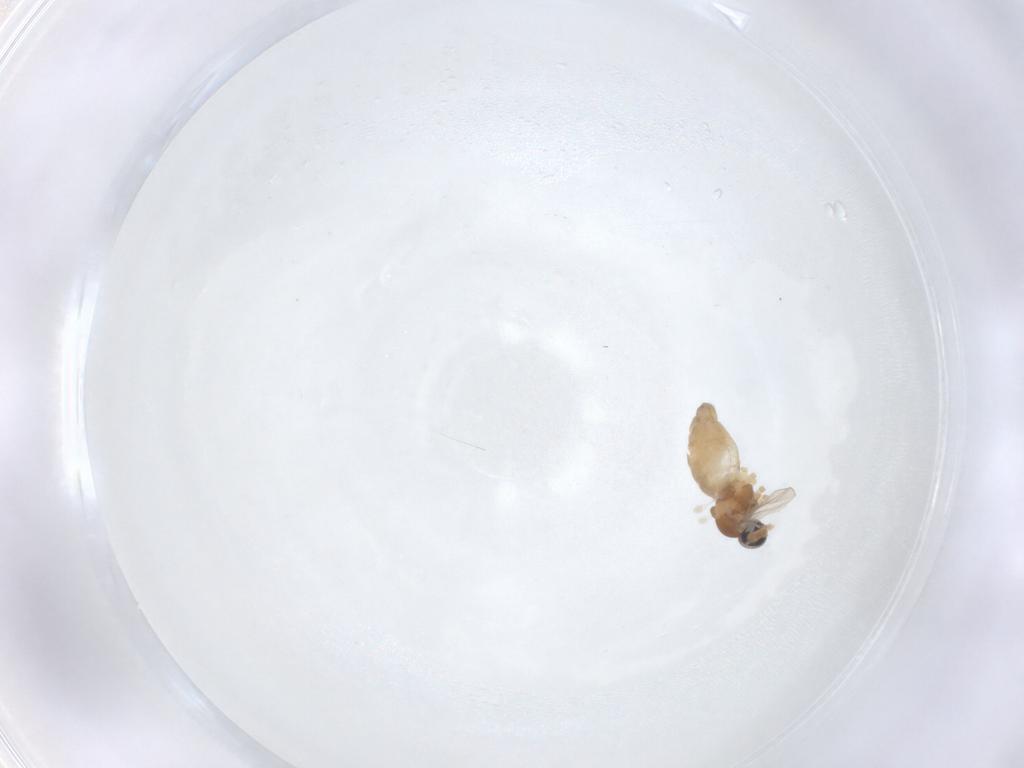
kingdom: Animalia
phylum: Arthropoda
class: Insecta
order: Diptera
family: Cecidomyiidae
